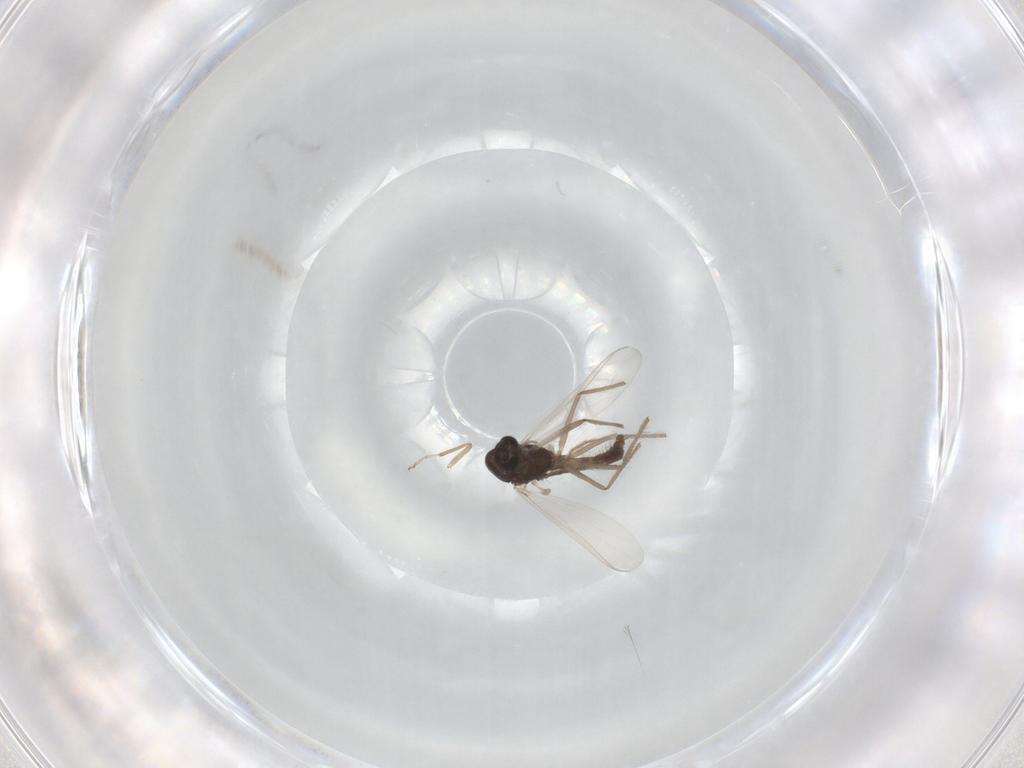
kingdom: Animalia
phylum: Arthropoda
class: Insecta
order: Diptera
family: Chironomidae
